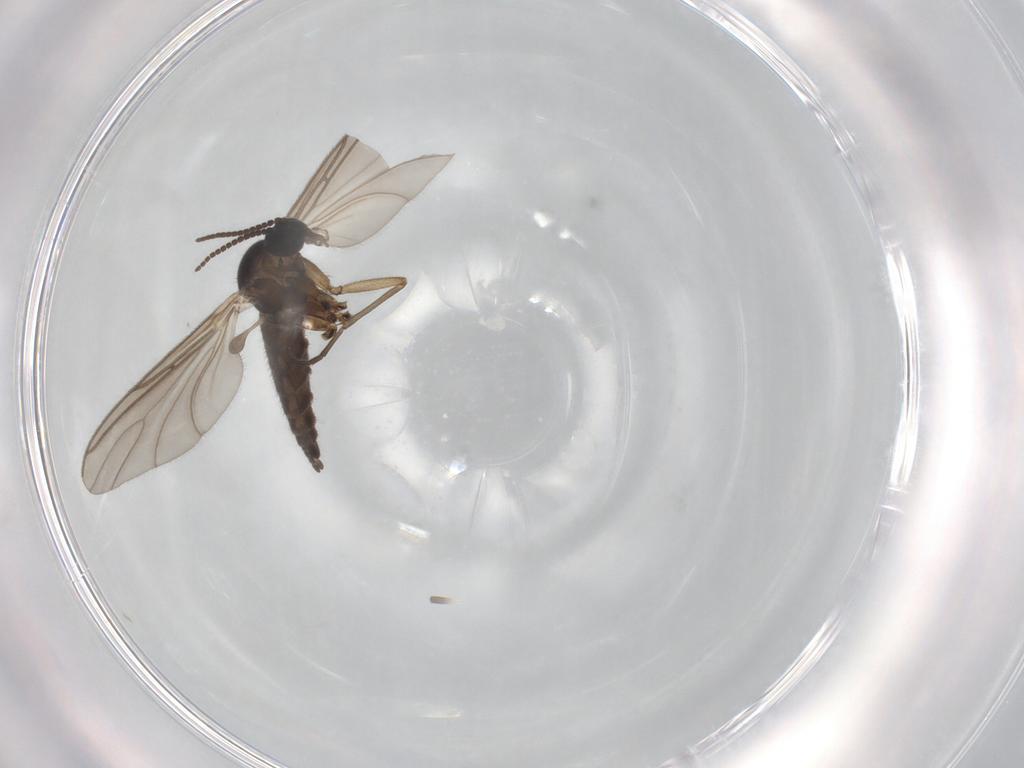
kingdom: Animalia
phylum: Arthropoda
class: Insecta
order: Diptera
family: Sciaridae
